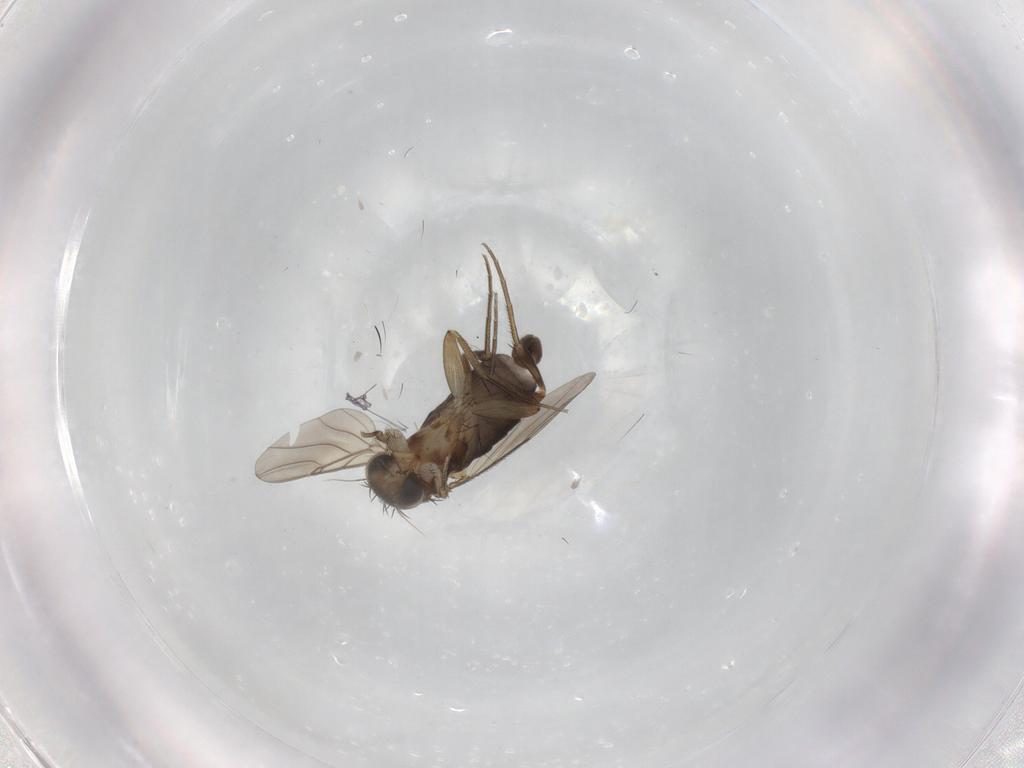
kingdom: Animalia
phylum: Arthropoda
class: Insecta
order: Diptera
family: Phoridae
